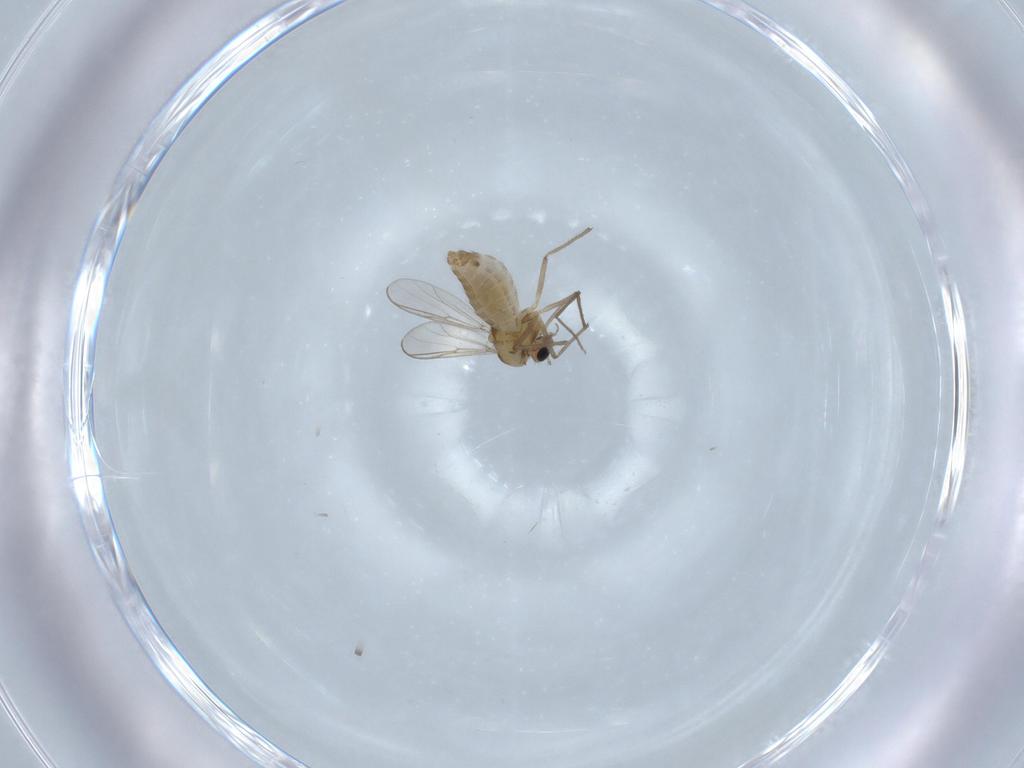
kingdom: Animalia
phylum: Arthropoda
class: Insecta
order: Diptera
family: Chironomidae
